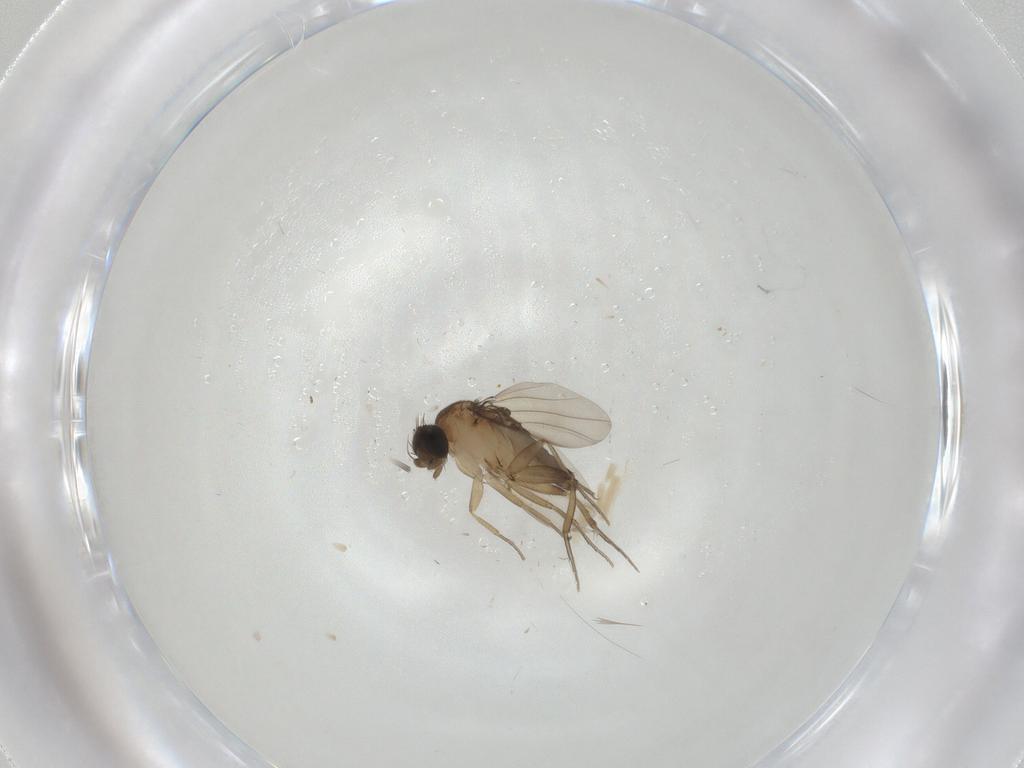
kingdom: Animalia
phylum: Arthropoda
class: Insecta
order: Diptera
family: Phoridae
